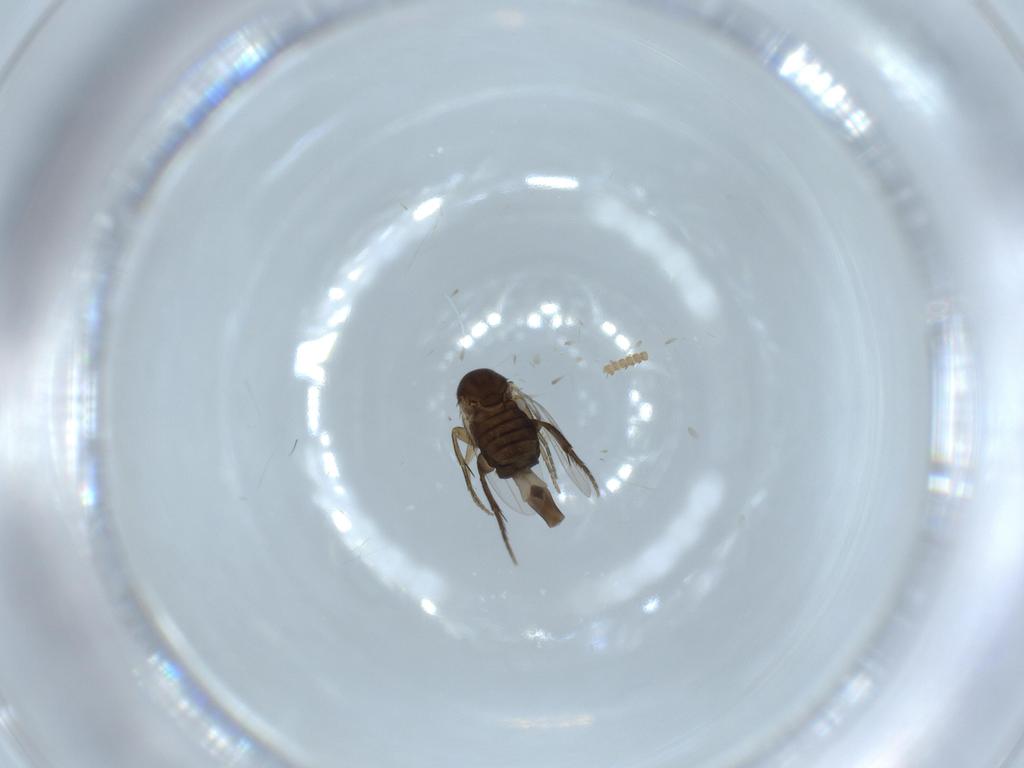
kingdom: Animalia
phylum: Arthropoda
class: Insecta
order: Diptera
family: Phoridae
